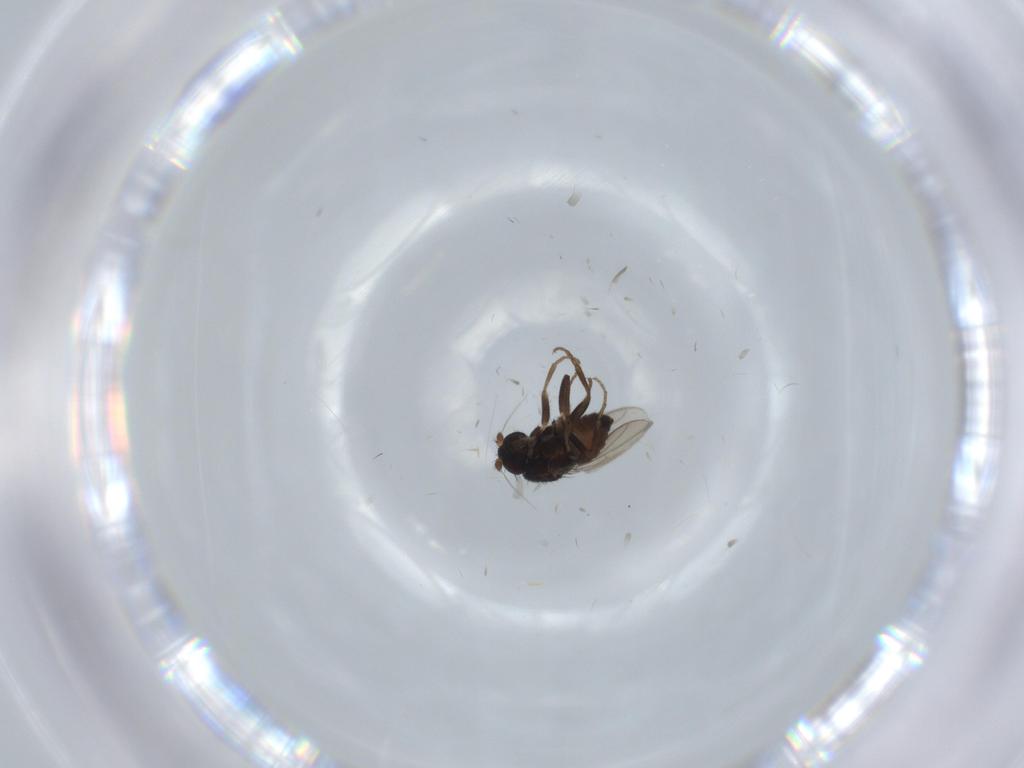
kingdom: Animalia
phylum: Arthropoda
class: Insecta
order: Diptera
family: Sphaeroceridae
